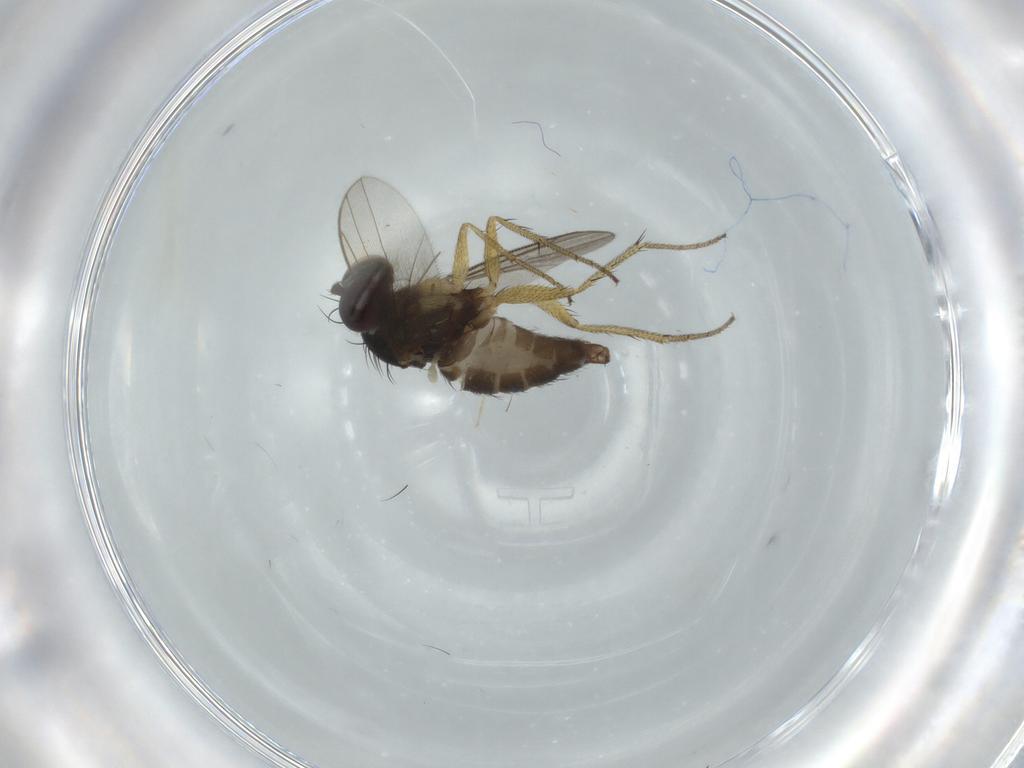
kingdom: Animalia
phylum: Arthropoda
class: Insecta
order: Diptera
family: Dolichopodidae
